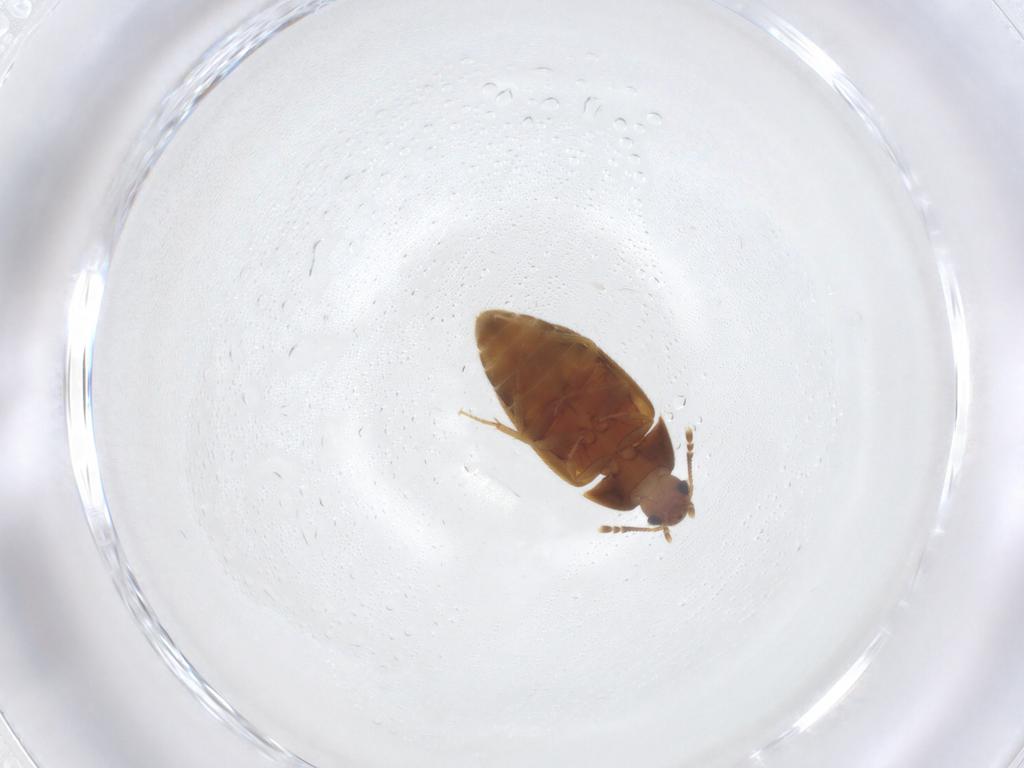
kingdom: Animalia
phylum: Arthropoda
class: Insecta
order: Coleoptera
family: Mycetophagidae
